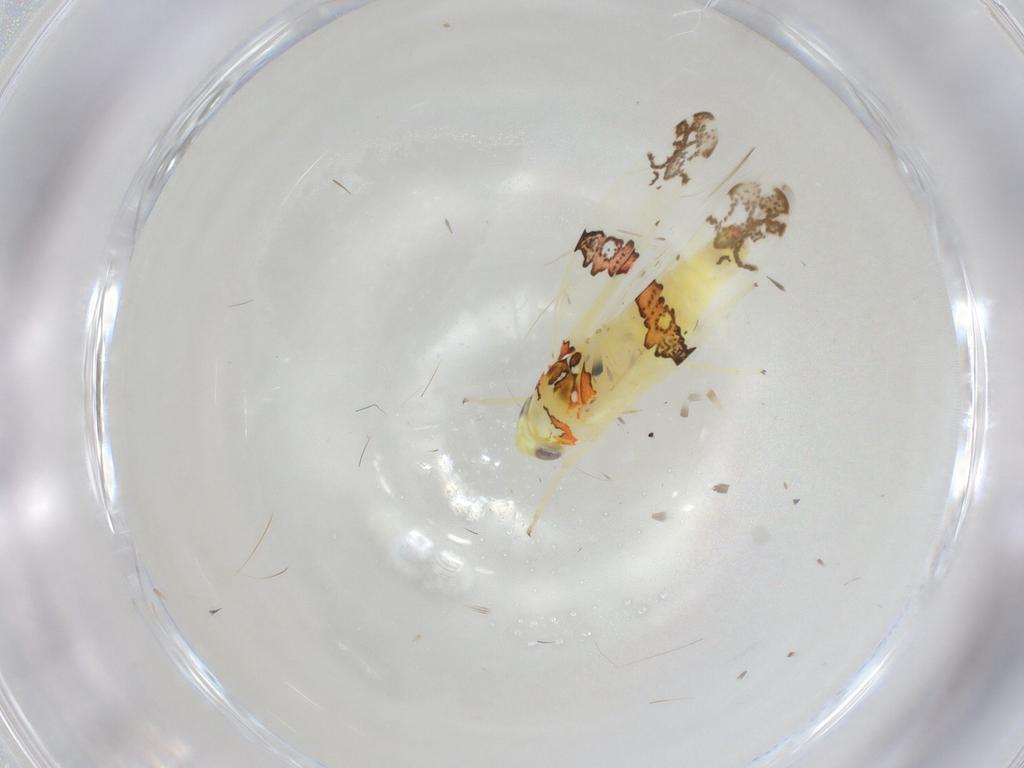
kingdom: Animalia
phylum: Arthropoda
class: Insecta
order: Hemiptera
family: Cicadellidae
